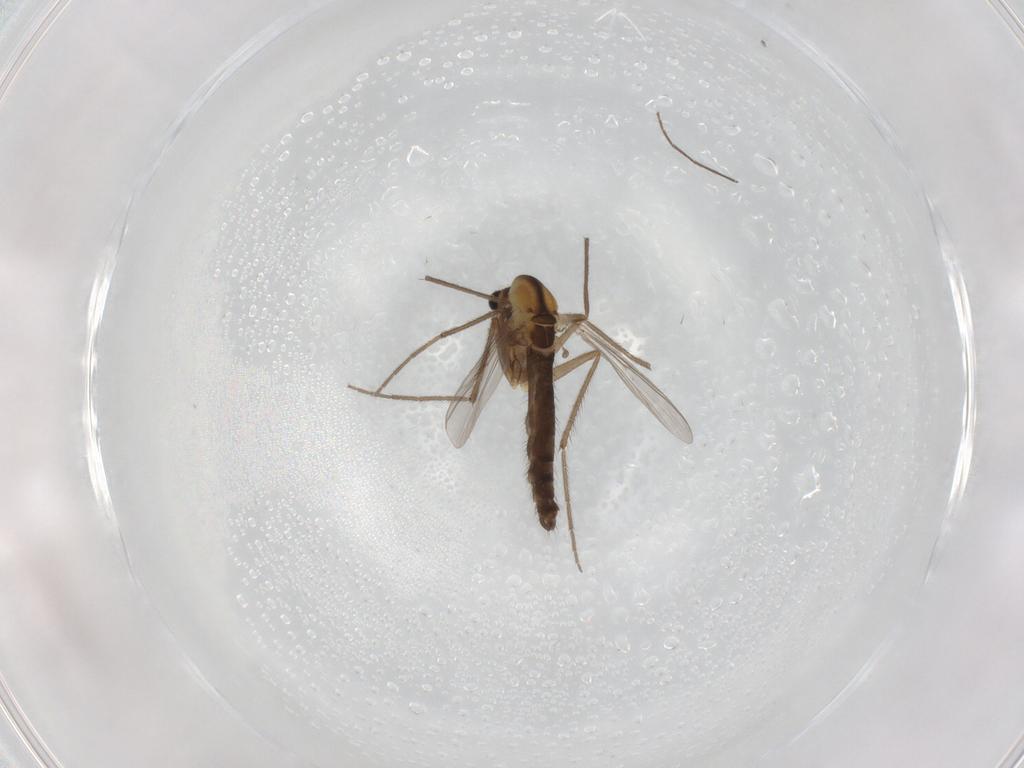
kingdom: Animalia
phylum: Arthropoda
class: Insecta
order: Diptera
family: Chironomidae
